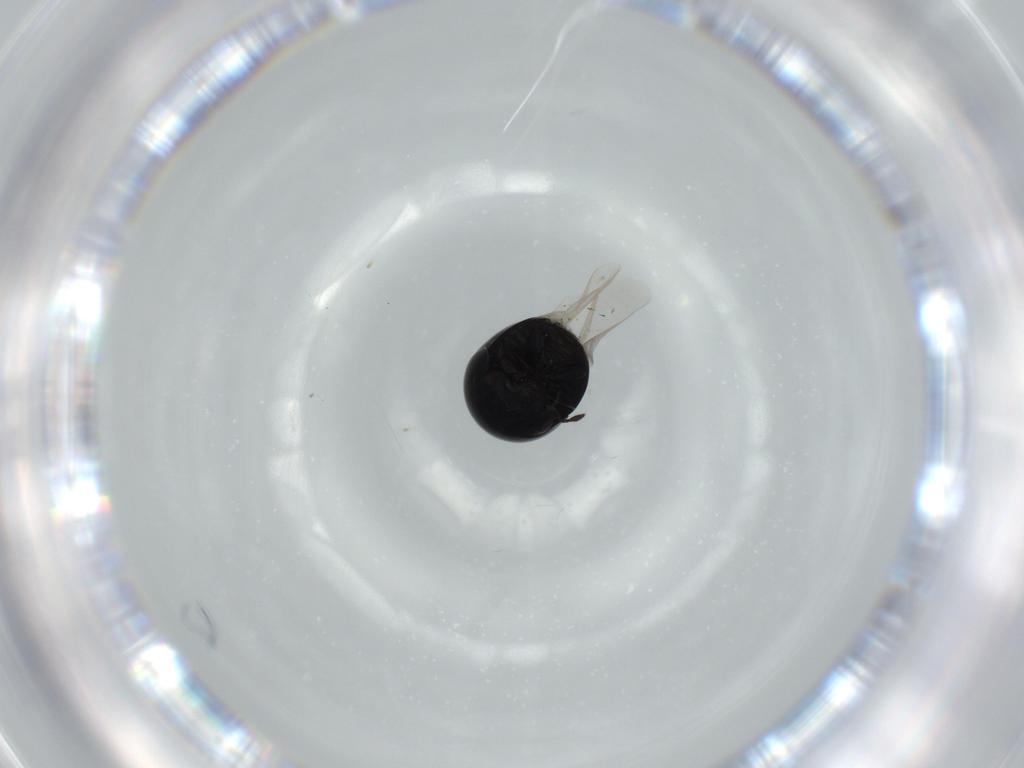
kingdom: Animalia
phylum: Arthropoda
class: Insecta
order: Coleoptera
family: Cybocephalidae
